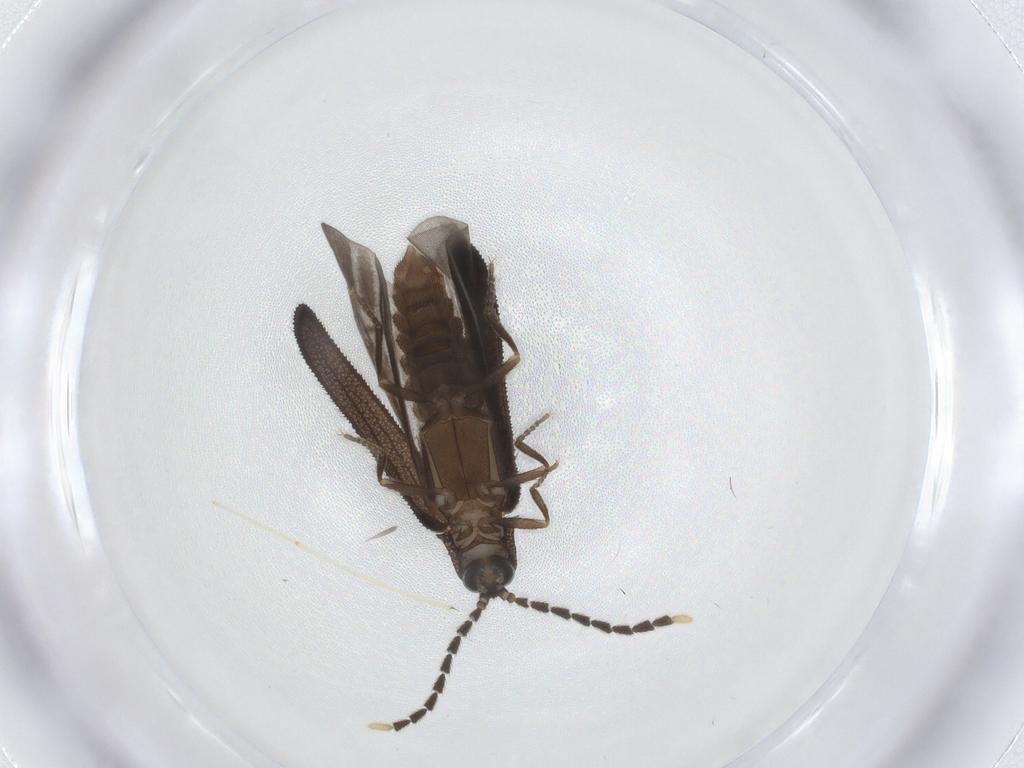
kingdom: Animalia
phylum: Arthropoda
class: Insecta
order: Coleoptera
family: Lycidae
